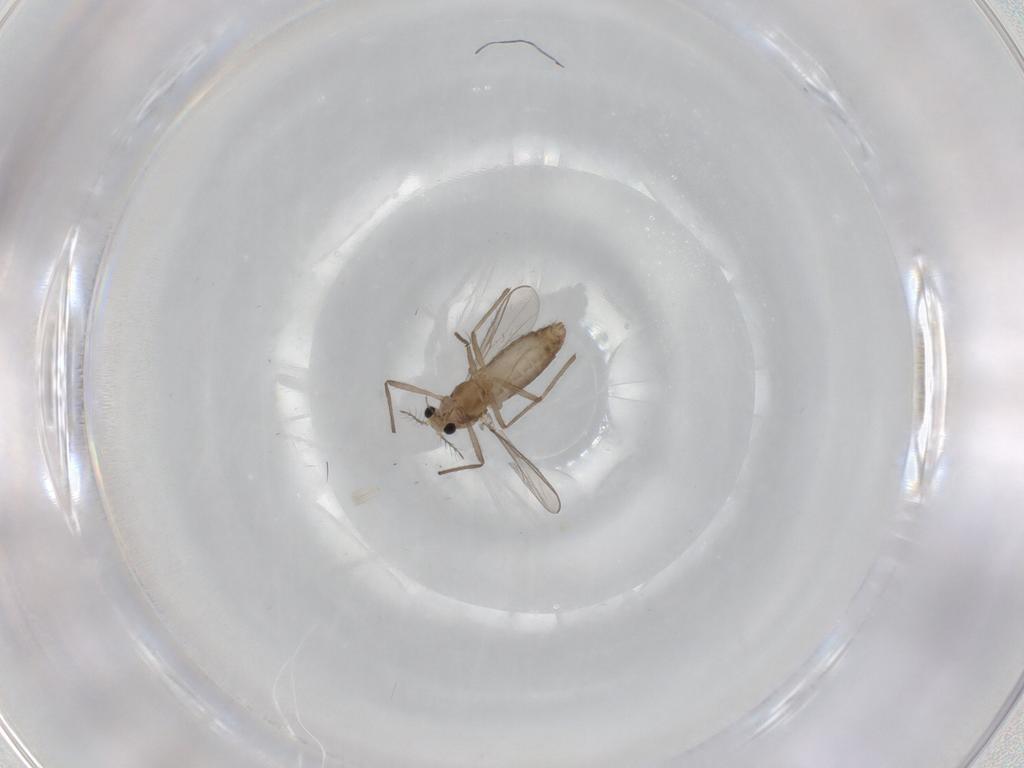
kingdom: Animalia
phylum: Arthropoda
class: Insecta
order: Diptera
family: Chironomidae
